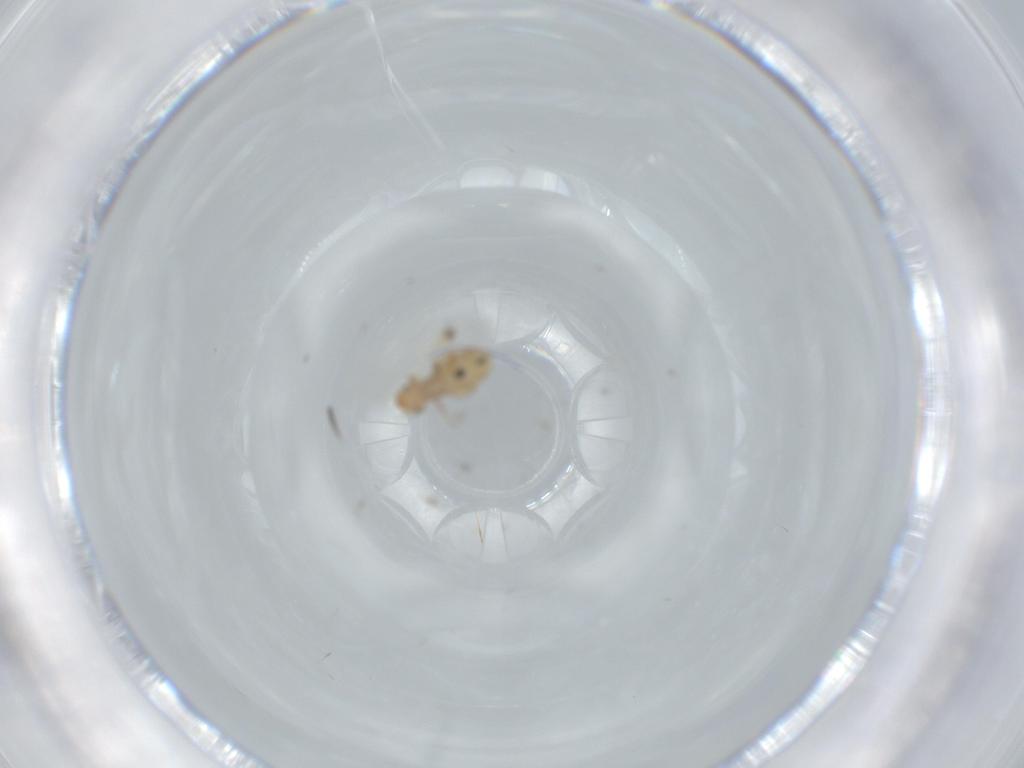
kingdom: Animalia
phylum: Arthropoda
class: Insecta
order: Psocodea
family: Liposcelididae
